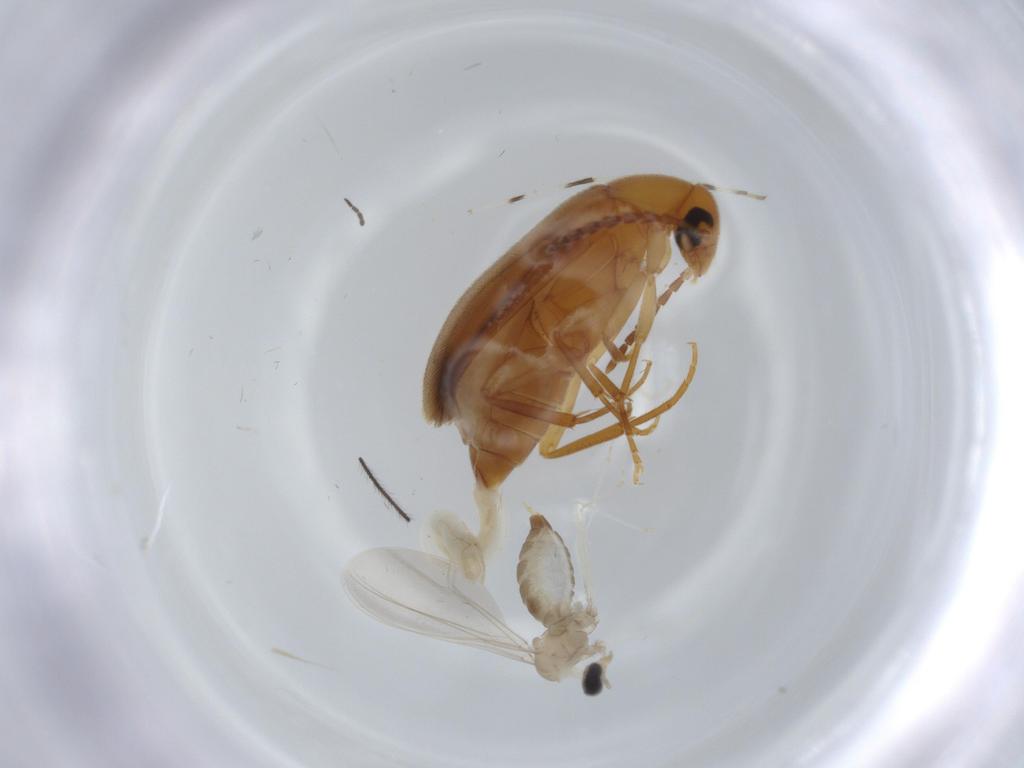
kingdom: Animalia
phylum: Arthropoda
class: Insecta
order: Coleoptera
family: Scraptiidae
